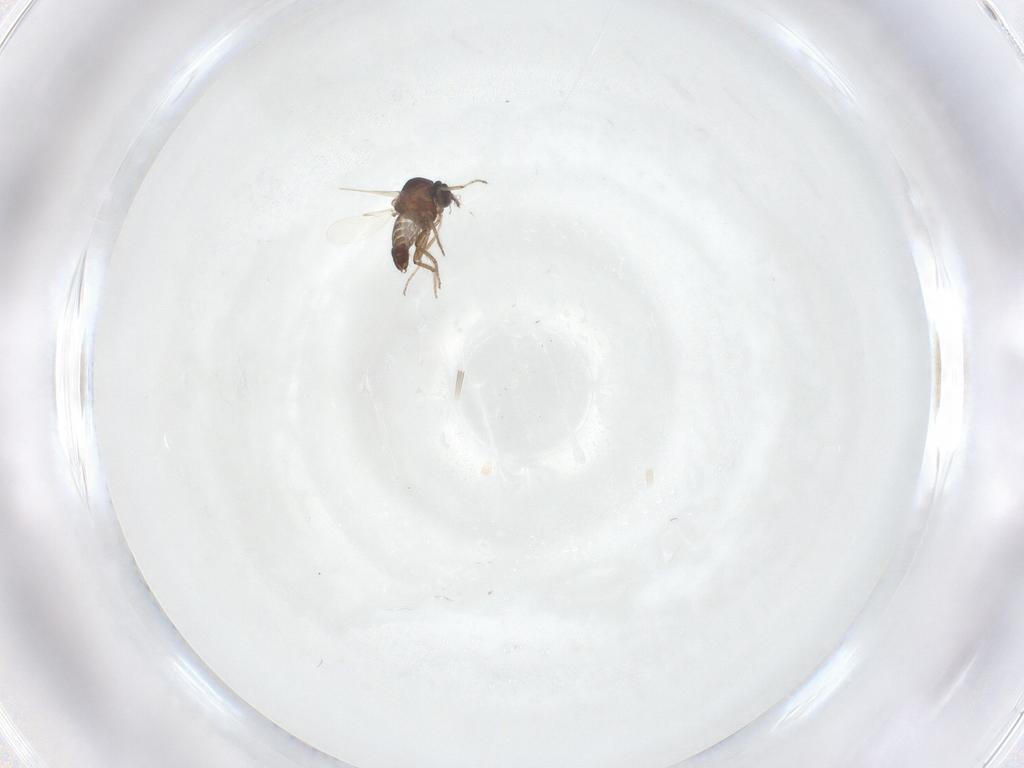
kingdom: Animalia
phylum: Arthropoda
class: Insecta
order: Diptera
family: Ceratopogonidae
